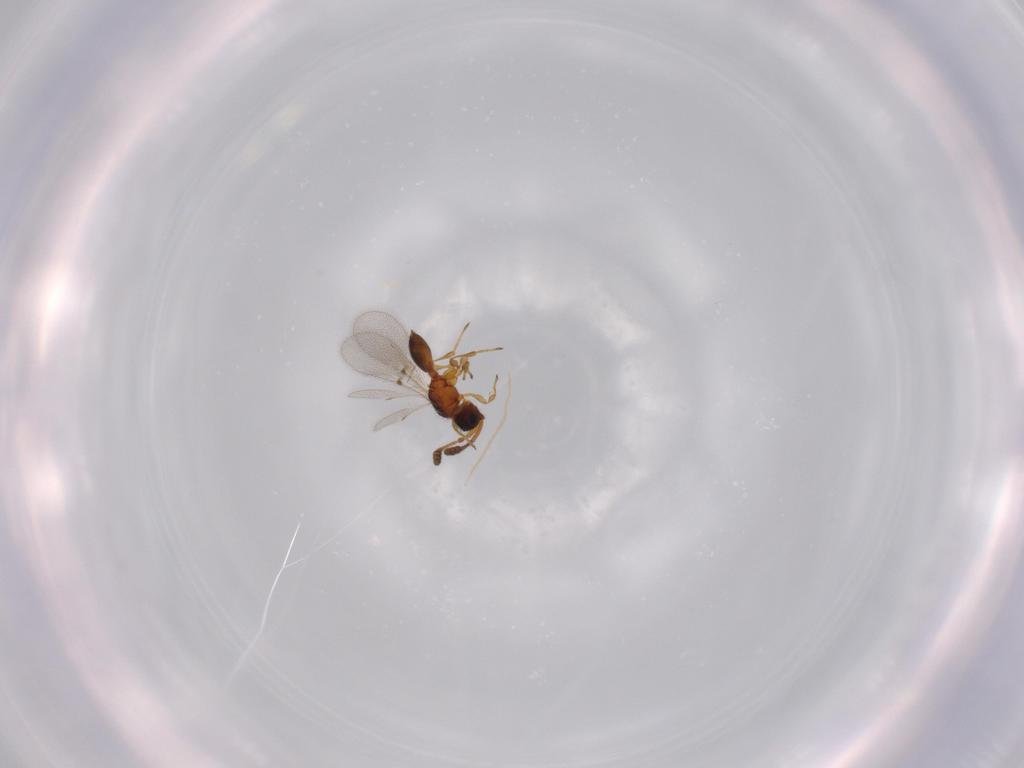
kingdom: Animalia
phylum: Arthropoda
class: Insecta
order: Hymenoptera
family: Diapriidae
